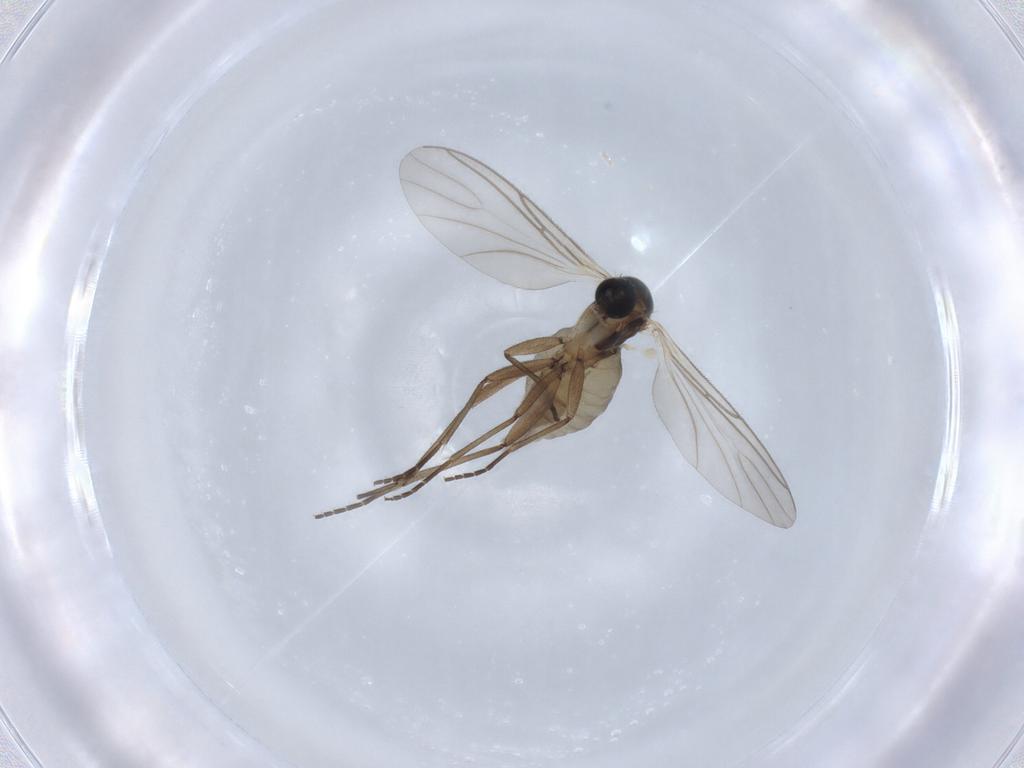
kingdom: Animalia
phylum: Arthropoda
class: Insecta
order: Diptera
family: Agromyzidae
